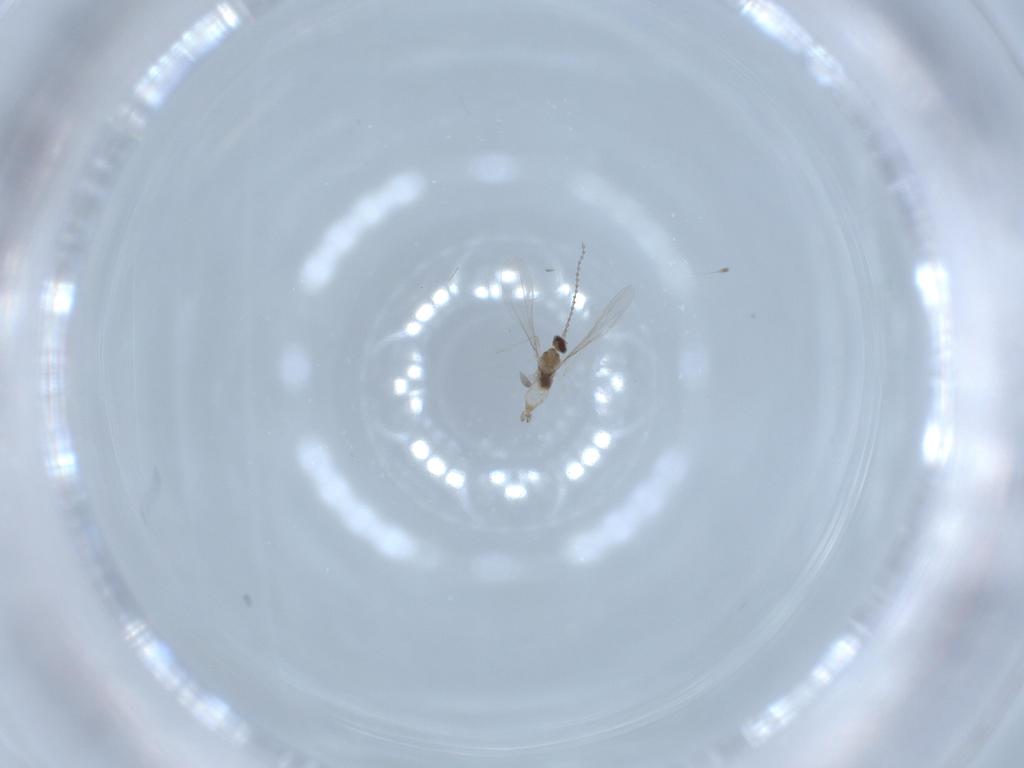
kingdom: Animalia
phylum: Arthropoda
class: Insecta
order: Diptera
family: Cecidomyiidae
